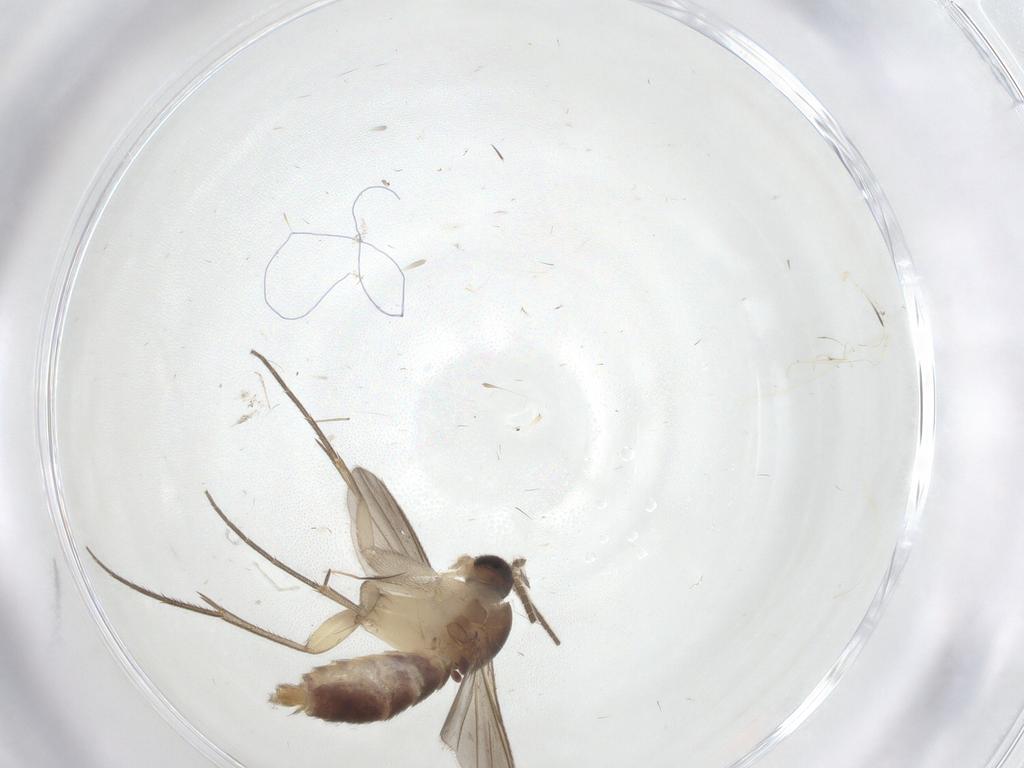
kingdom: Animalia
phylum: Arthropoda
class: Insecta
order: Diptera
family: Mycetophilidae
